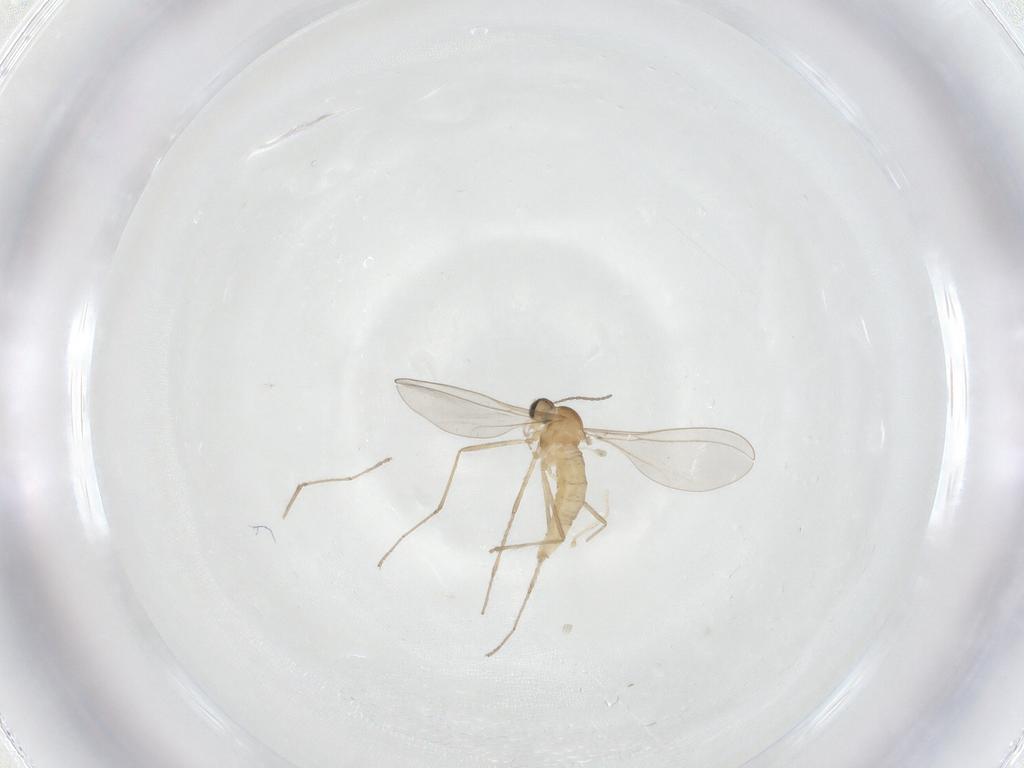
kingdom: Animalia
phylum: Arthropoda
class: Insecta
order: Diptera
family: Cecidomyiidae
